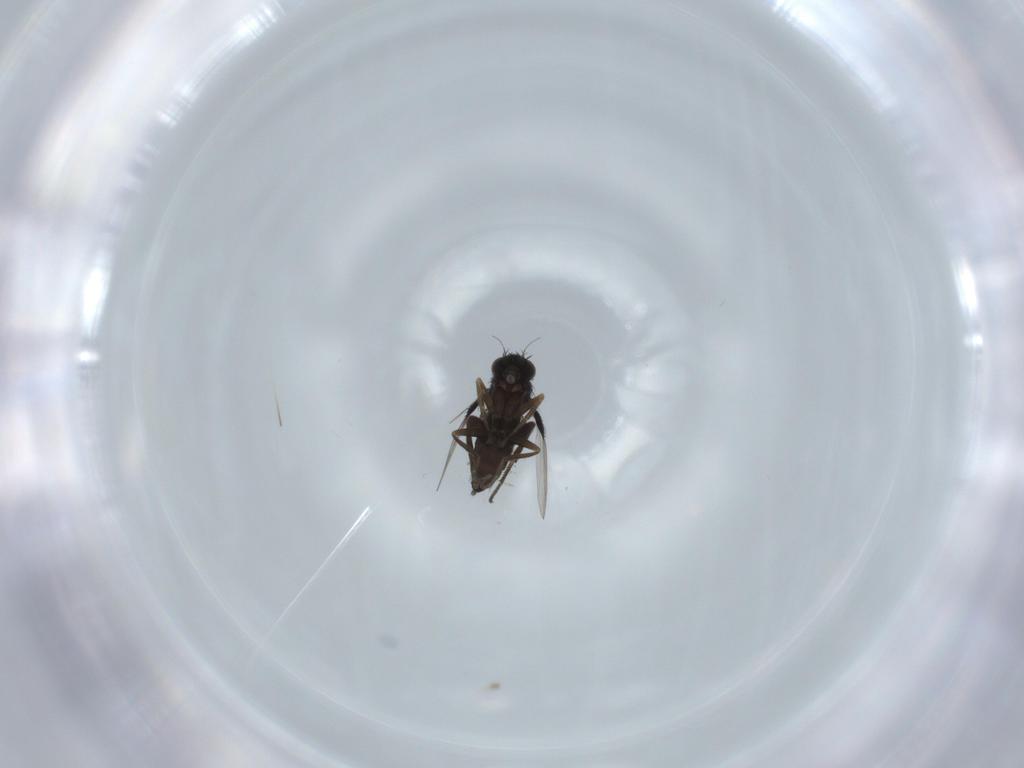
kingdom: Animalia
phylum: Arthropoda
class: Insecta
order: Diptera
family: Phoridae
